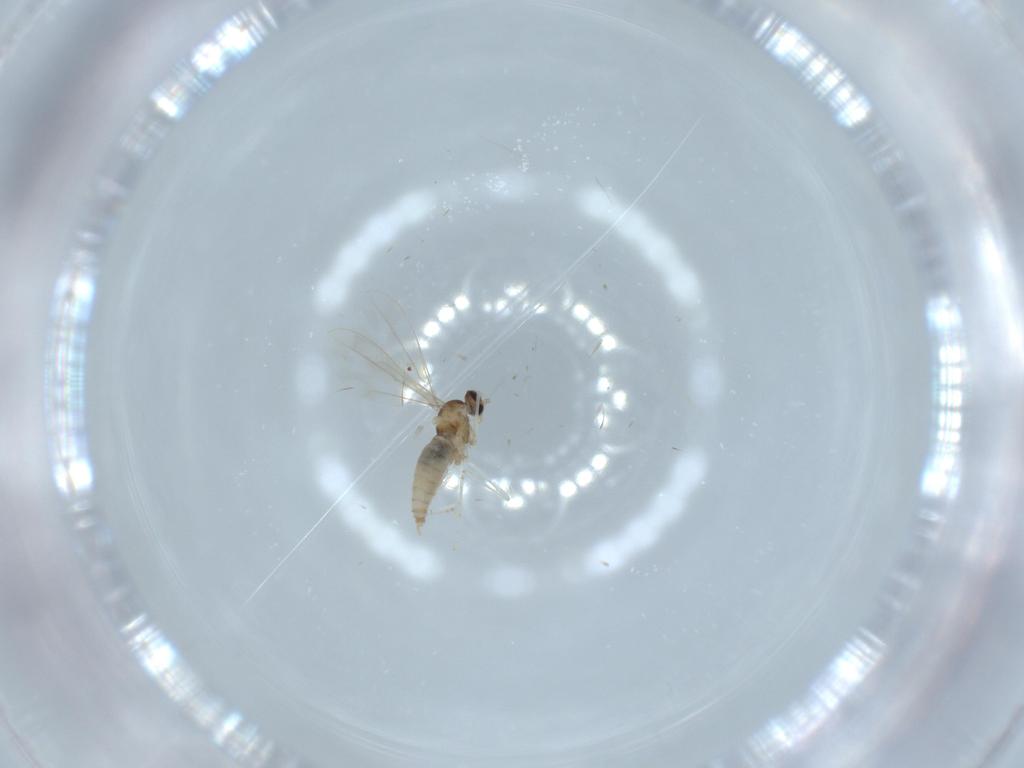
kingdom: Animalia
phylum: Arthropoda
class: Insecta
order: Diptera
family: Cecidomyiidae
